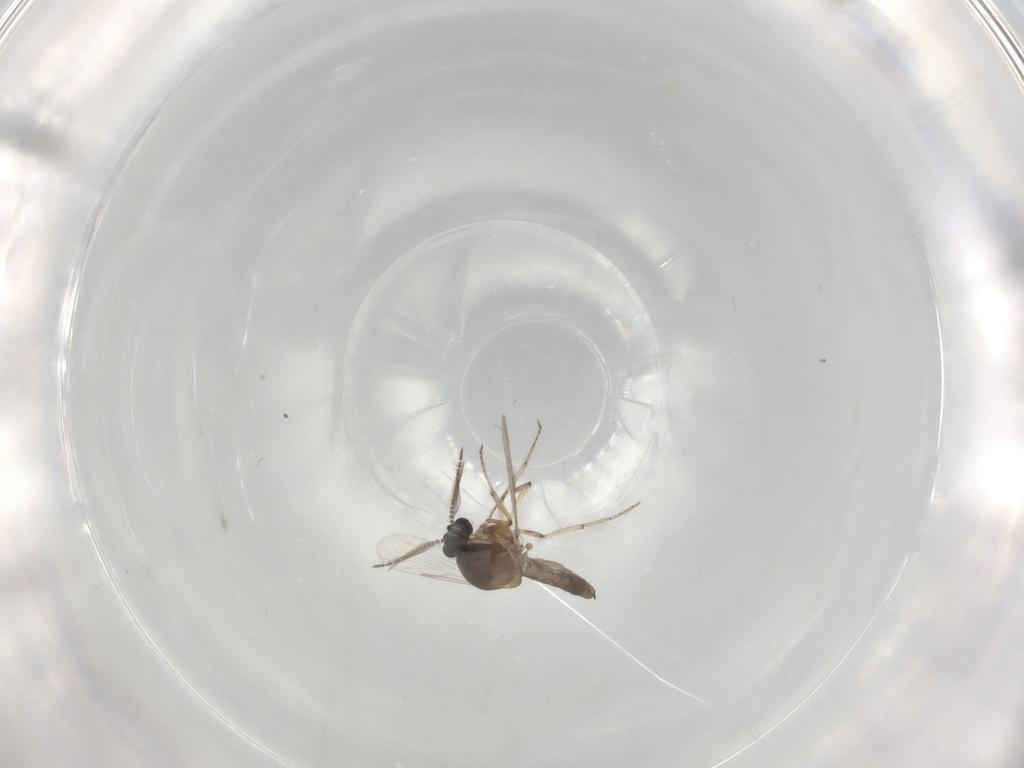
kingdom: Animalia
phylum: Arthropoda
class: Insecta
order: Diptera
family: Ceratopogonidae
